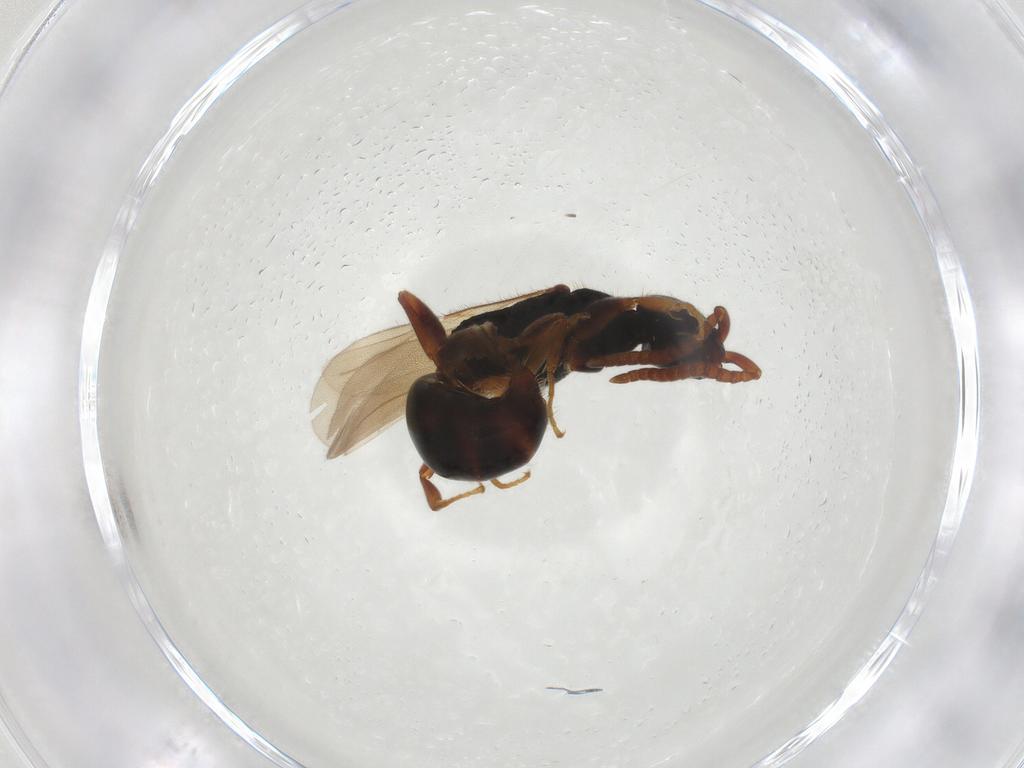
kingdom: Animalia
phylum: Arthropoda
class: Insecta
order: Hymenoptera
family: Bethylidae
